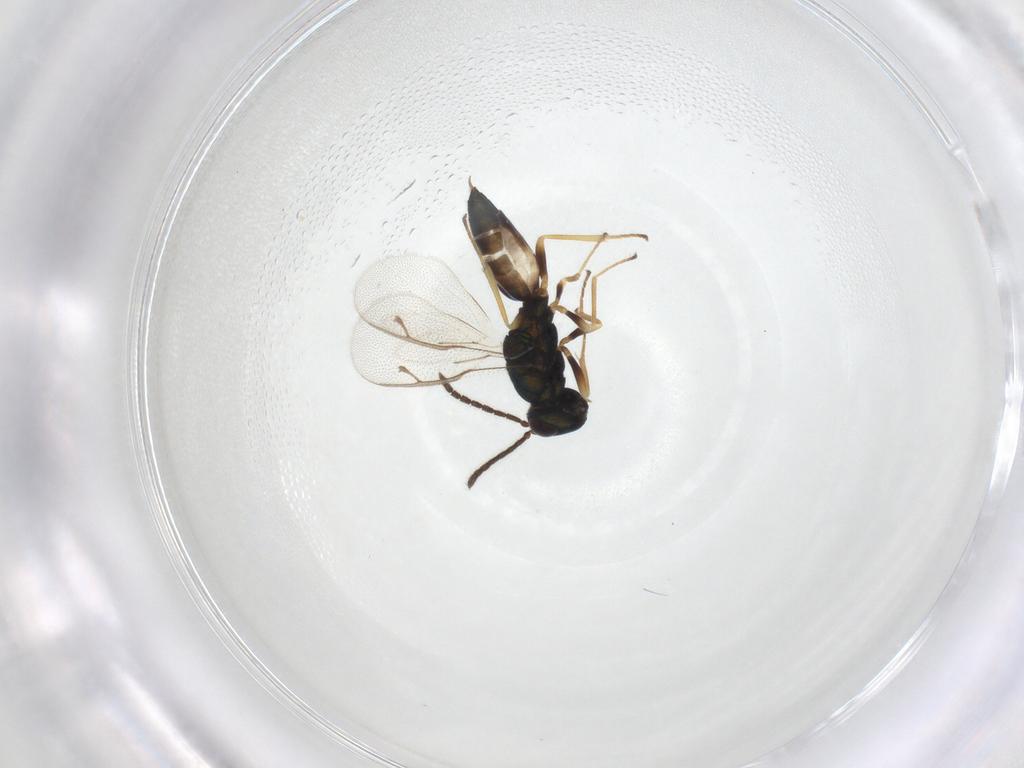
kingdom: Animalia
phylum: Arthropoda
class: Insecta
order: Hymenoptera
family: Pteromalidae
